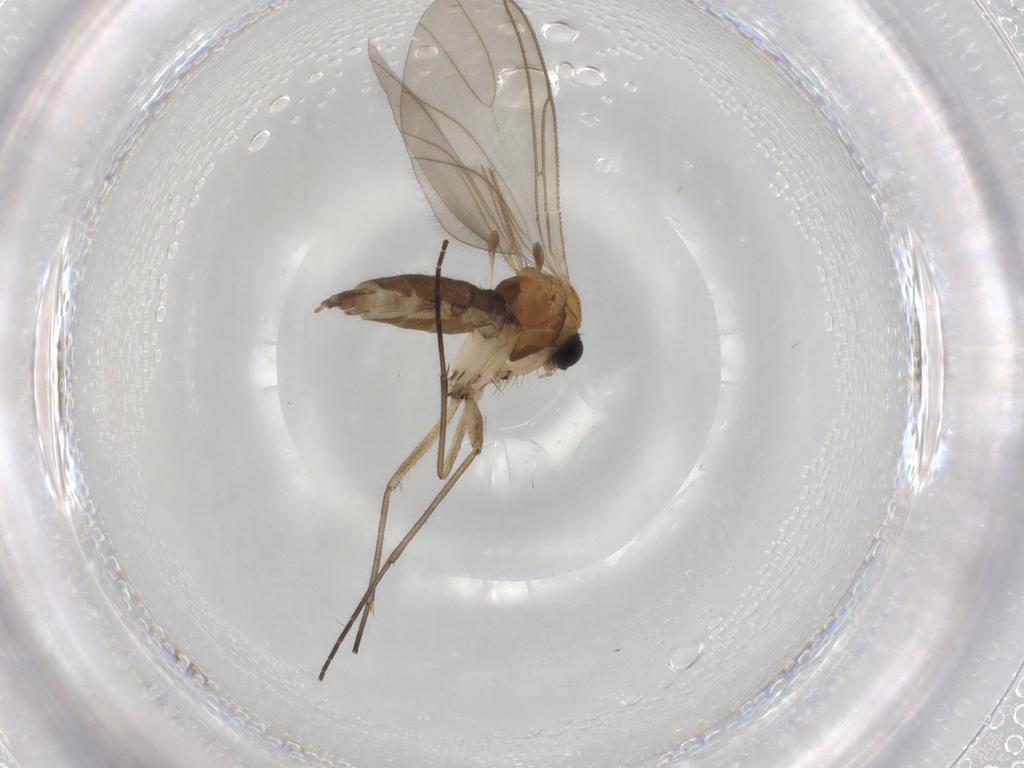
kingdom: Animalia
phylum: Arthropoda
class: Insecta
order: Diptera
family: Sciaridae
